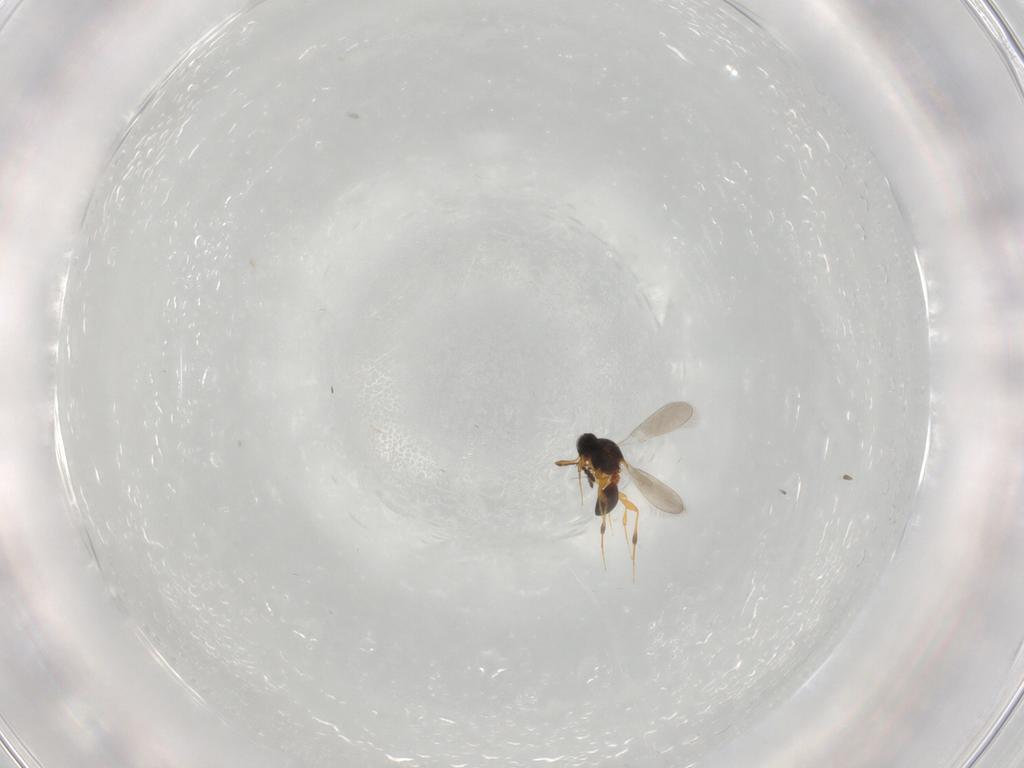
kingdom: Animalia
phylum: Arthropoda
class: Insecta
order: Hymenoptera
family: Platygastridae
